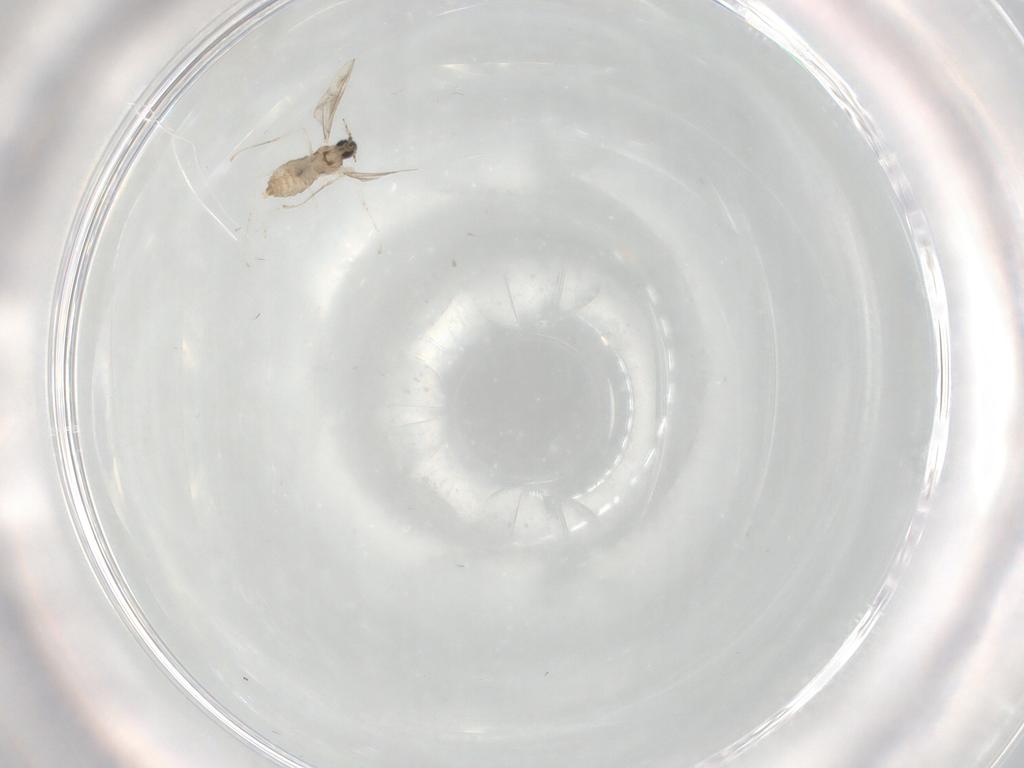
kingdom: Animalia
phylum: Arthropoda
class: Insecta
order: Diptera
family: Cecidomyiidae
